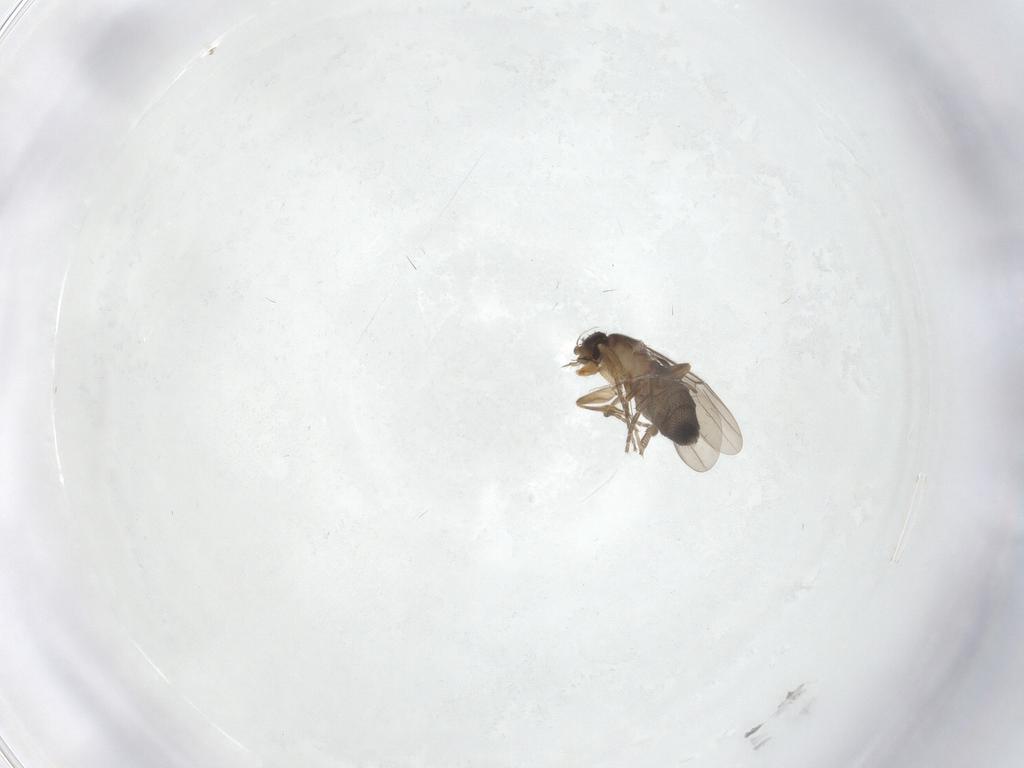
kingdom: Animalia
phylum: Arthropoda
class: Insecta
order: Diptera
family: Phoridae
